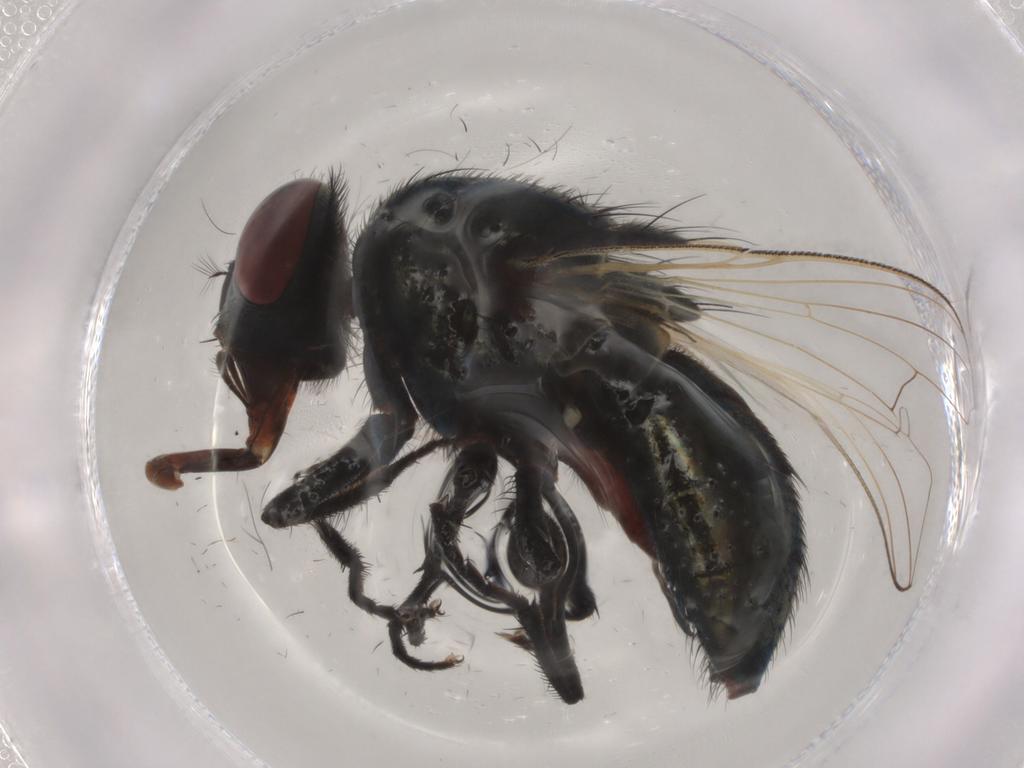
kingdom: Animalia
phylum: Arthropoda
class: Insecta
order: Diptera
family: Muscidae
